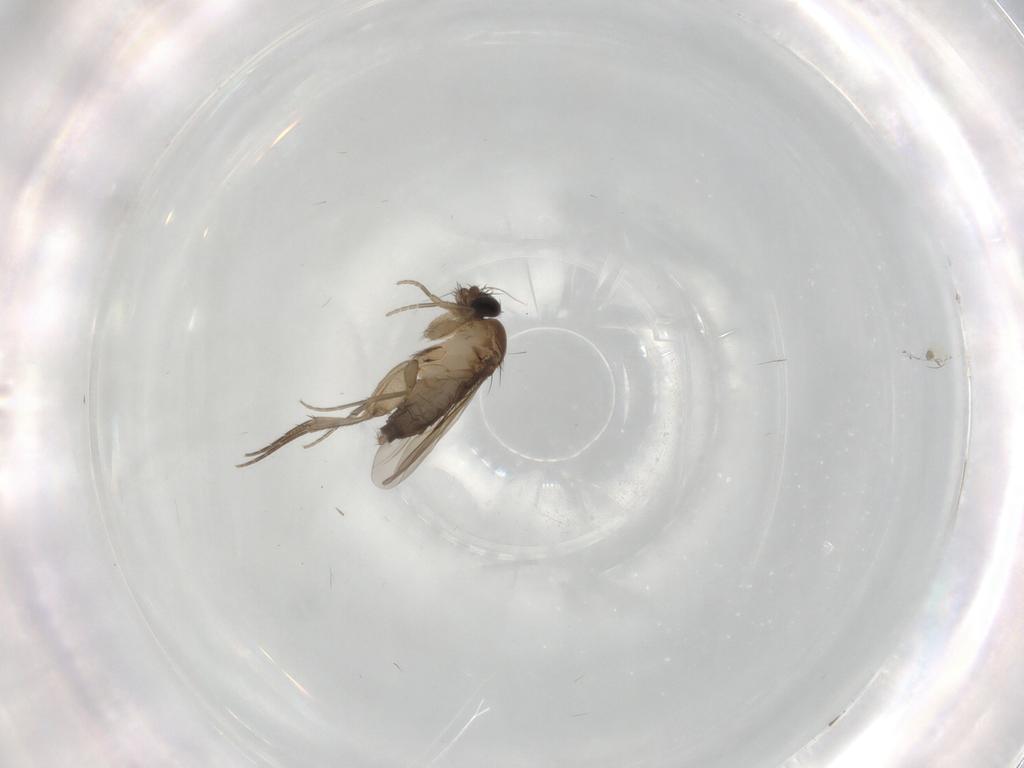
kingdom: Animalia
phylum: Arthropoda
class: Insecta
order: Diptera
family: Phoridae
